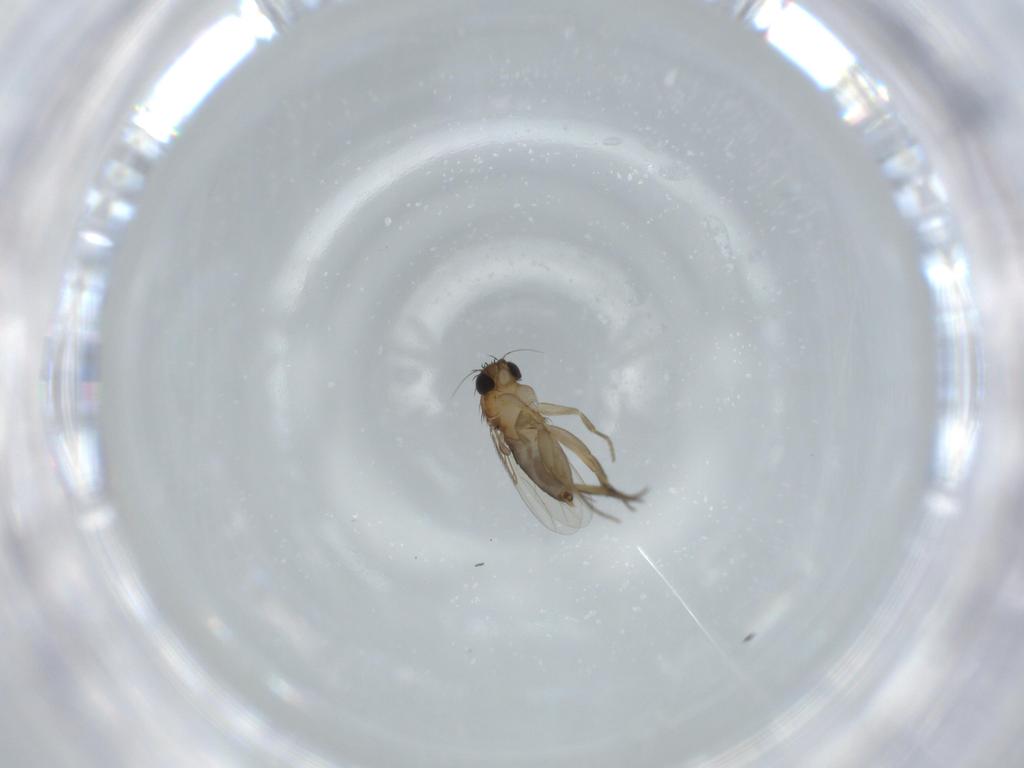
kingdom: Animalia
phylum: Arthropoda
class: Insecta
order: Diptera
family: Phoridae
